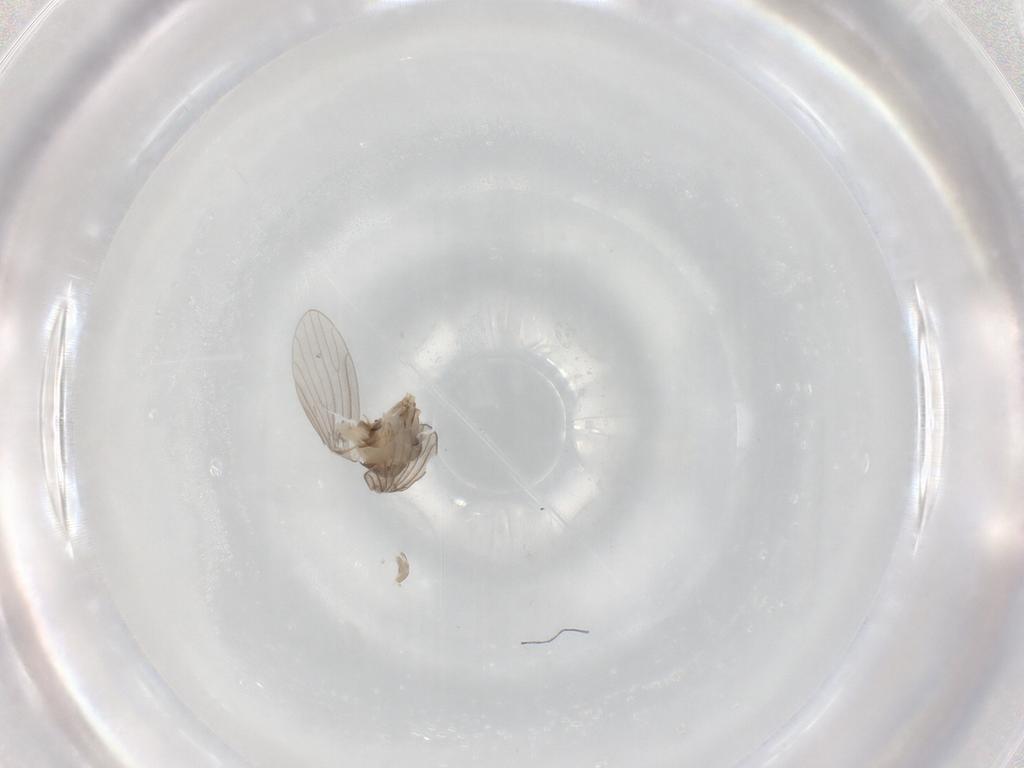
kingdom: Animalia
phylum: Arthropoda
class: Insecta
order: Diptera
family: Psychodidae
